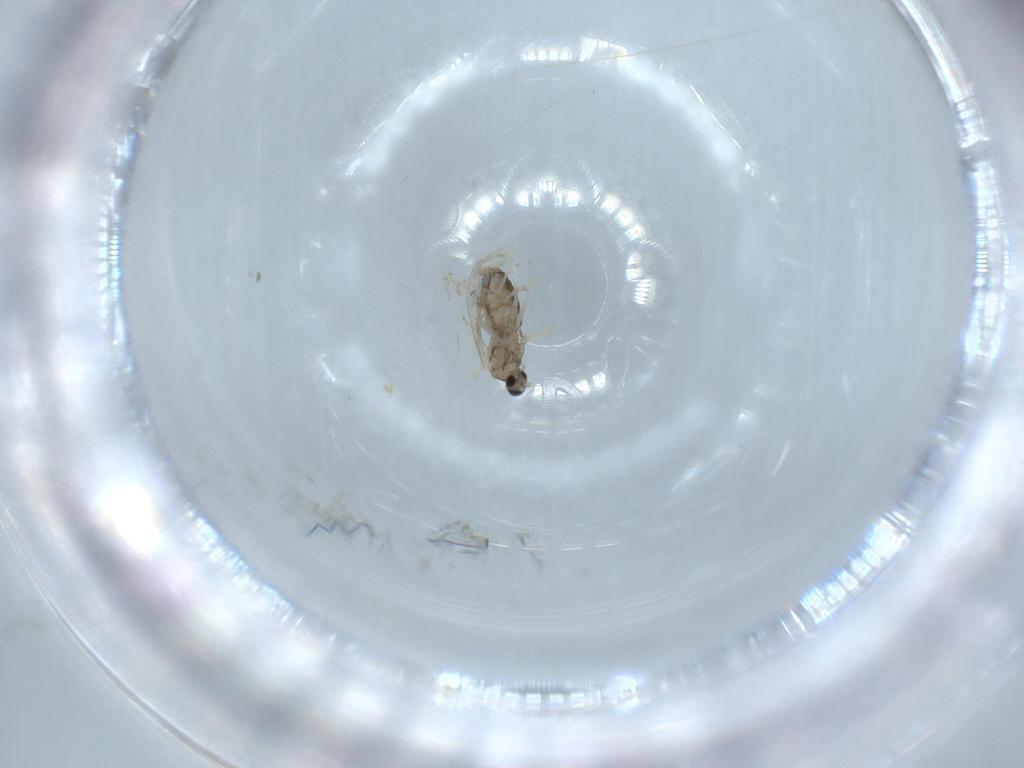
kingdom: Animalia
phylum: Arthropoda
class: Insecta
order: Diptera
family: Cecidomyiidae
